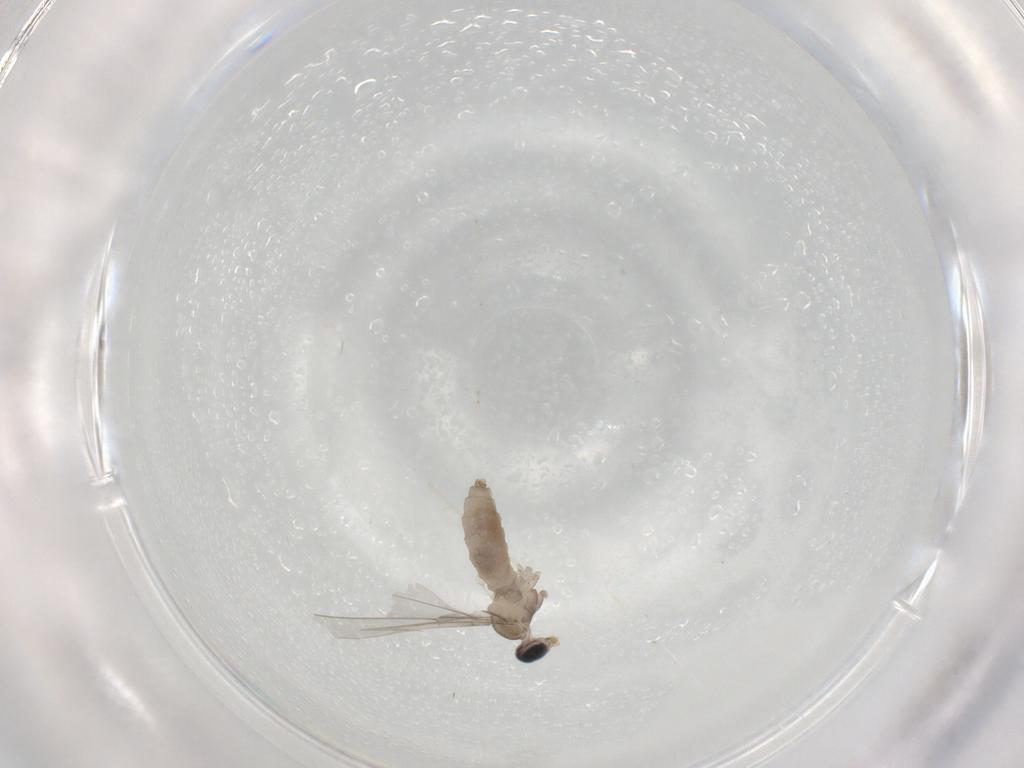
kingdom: Animalia
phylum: Arthropoda
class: Insecta
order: Diptera
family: Cecidomyiidae
